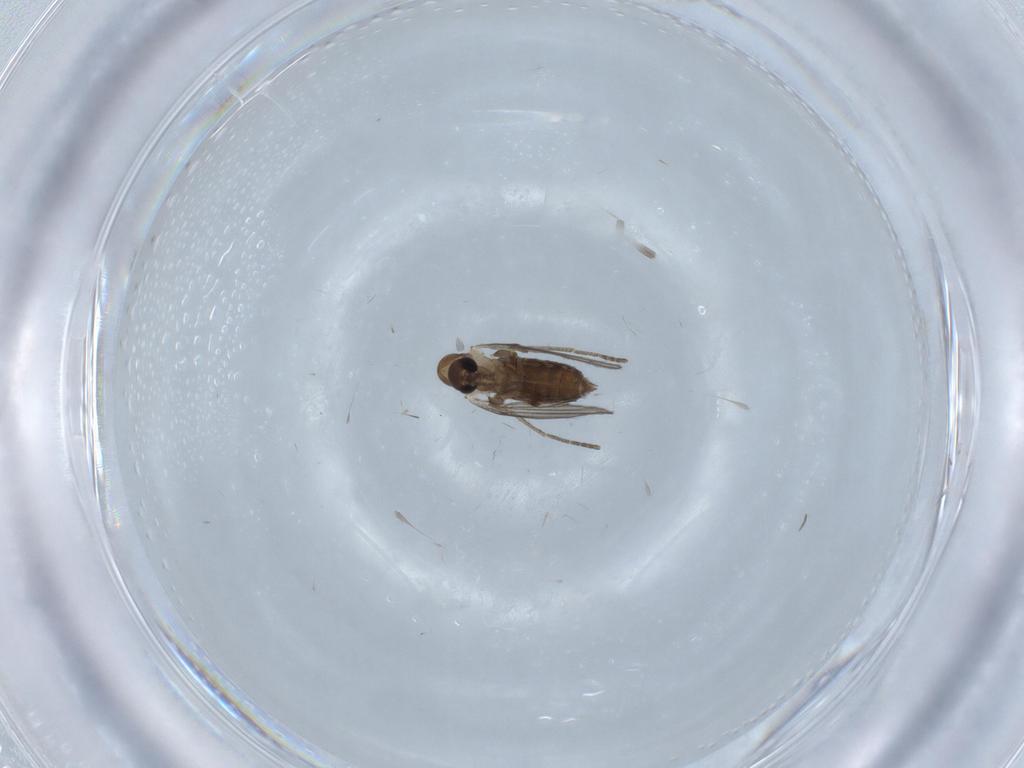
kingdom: Animalia
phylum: Arthropoda
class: Insecta
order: Diptera
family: Psychodidae
